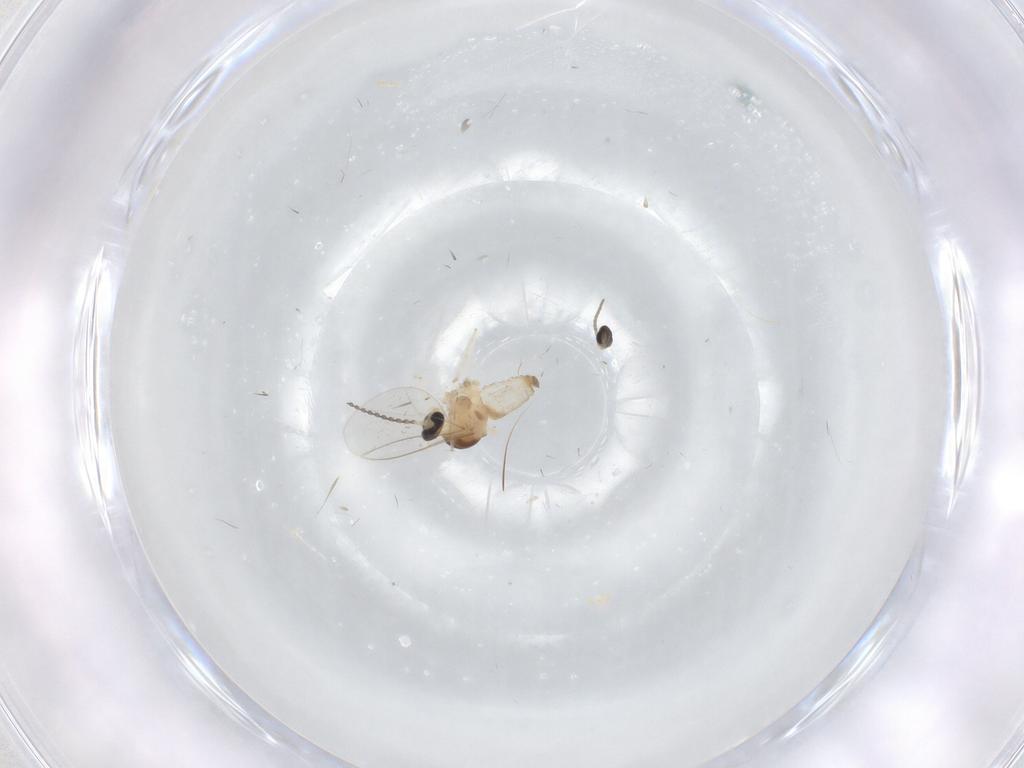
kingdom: Animalia
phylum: Arthropoda
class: Insecta
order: Diptera
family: Cecidomyiidae
